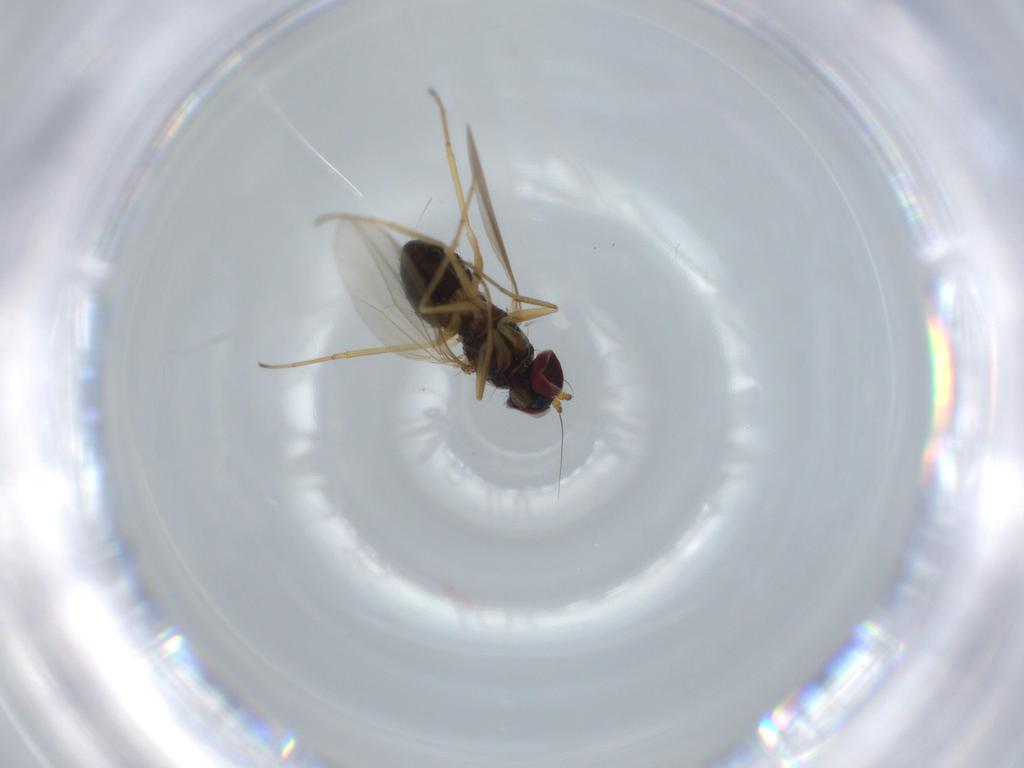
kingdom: Animalia
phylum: Arthropoda
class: Insecta
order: Diptera
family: Dolichopodidae
